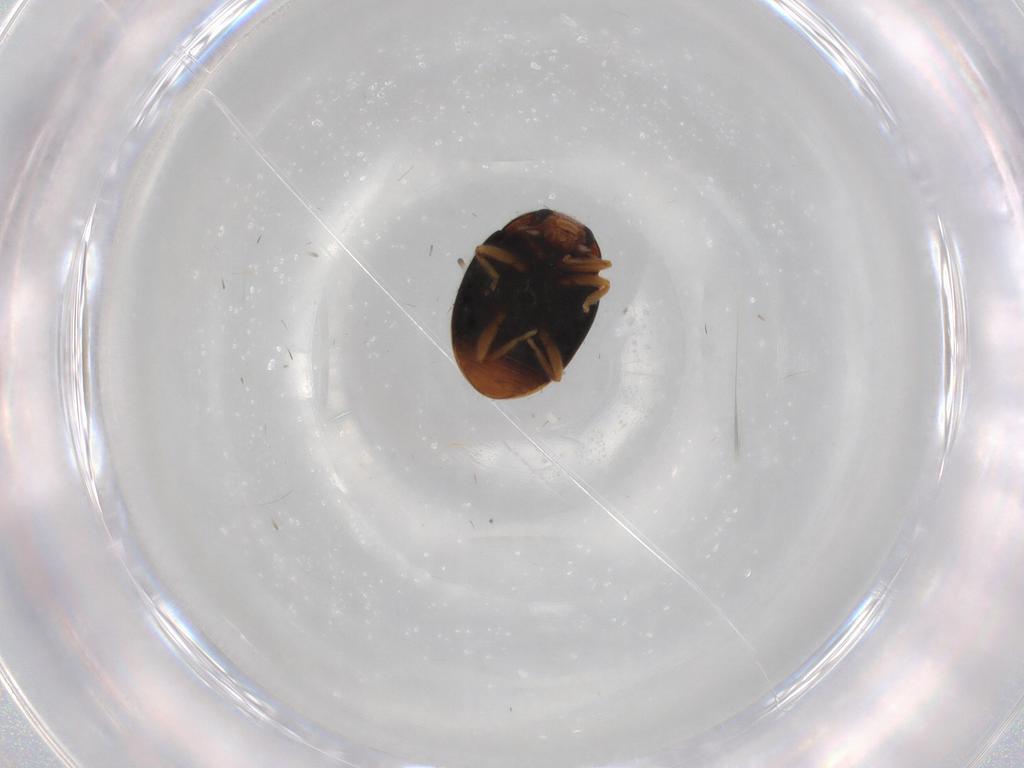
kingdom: Animalia
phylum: Arthropoda
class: Insecta
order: Coleoptera
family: Coccinellidae
